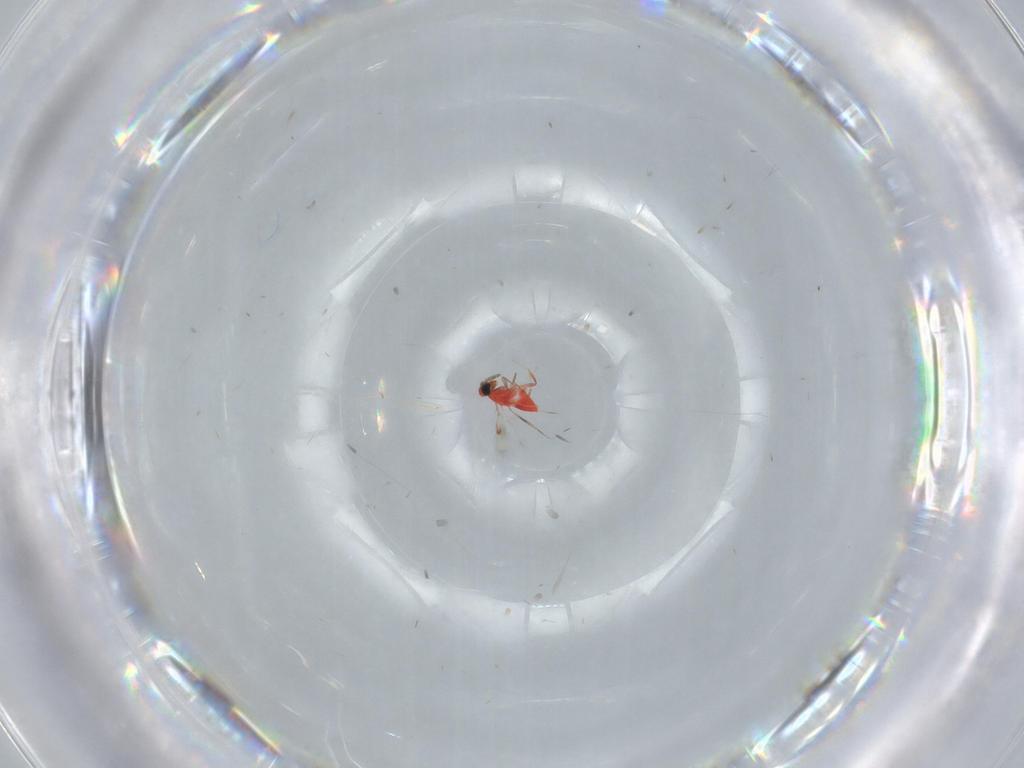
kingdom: Animalia
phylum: Arthropoda
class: Insecta
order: Hymenoptera
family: Trichogrammatidae
